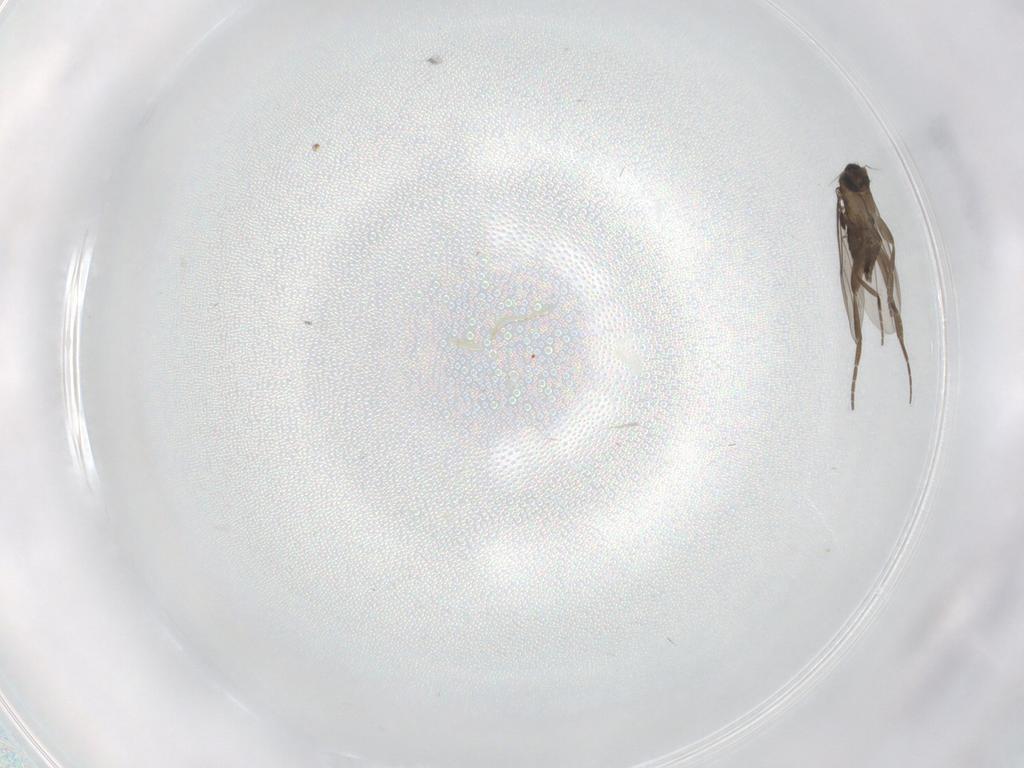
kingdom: Animalia
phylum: Arthropoda
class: Insecta
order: Diptera
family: Phoridae
